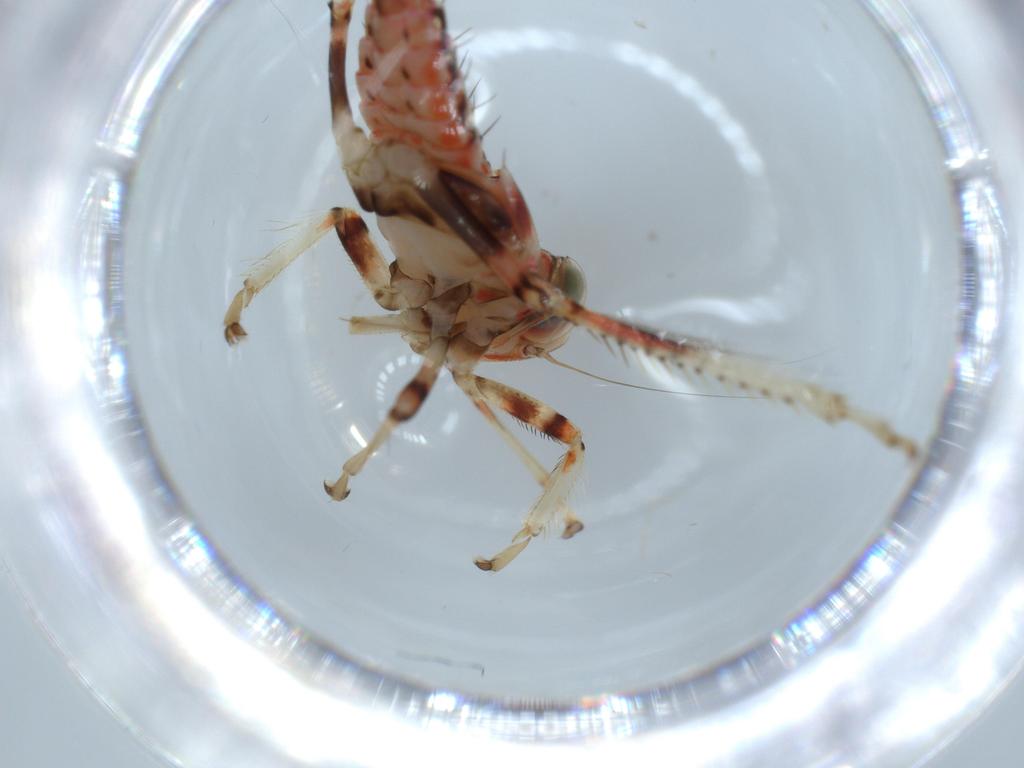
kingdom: Animalia
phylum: Arthropoda
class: Insecta
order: Hemiptera
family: Cicadellidae
